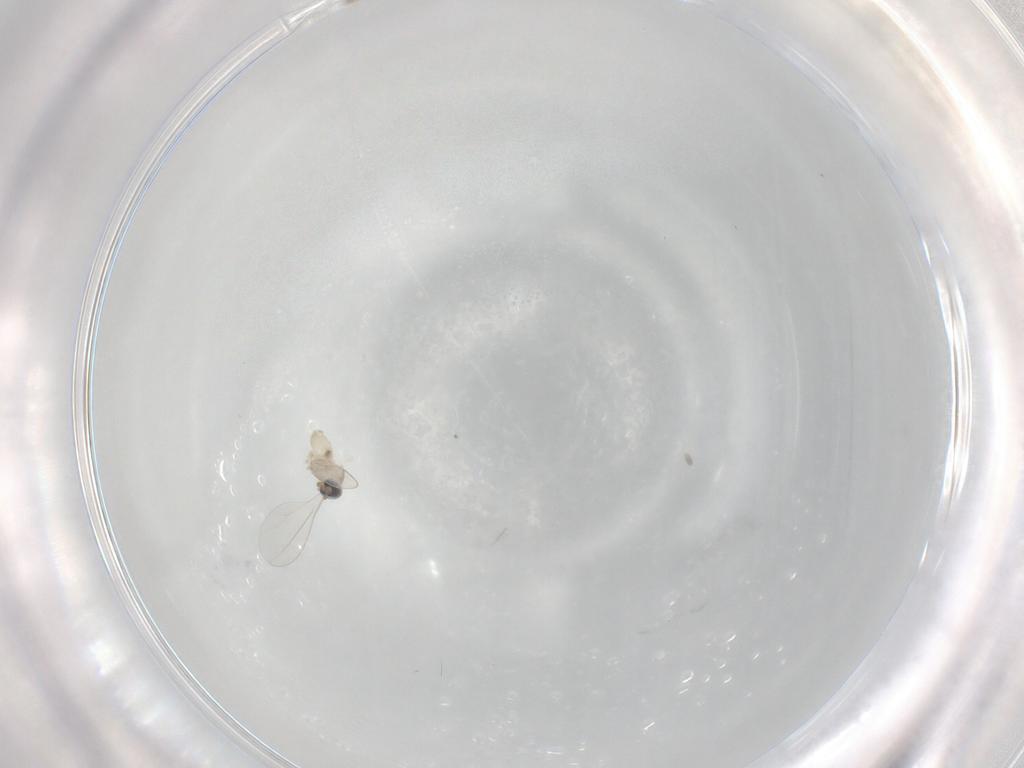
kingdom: Animalia
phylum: Arthropoda
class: Insecta
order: Diptera
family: Cecidomyiidae
